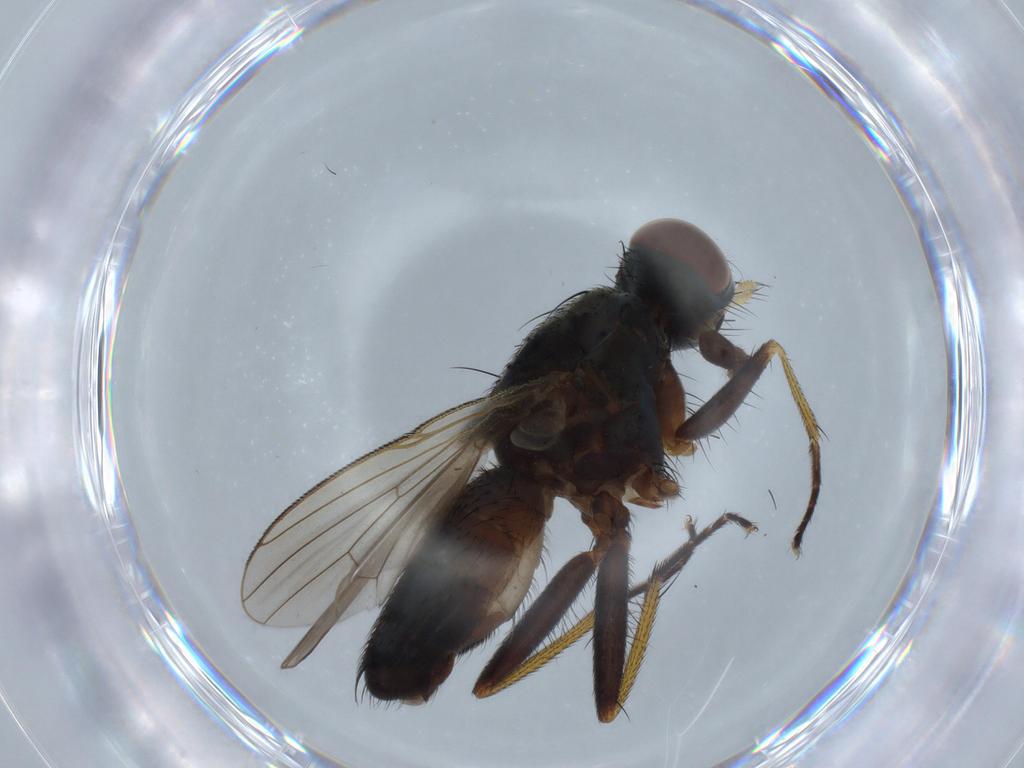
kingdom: Animalia
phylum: Arthropoda
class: Insecta
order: Diptera
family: Muscidae
